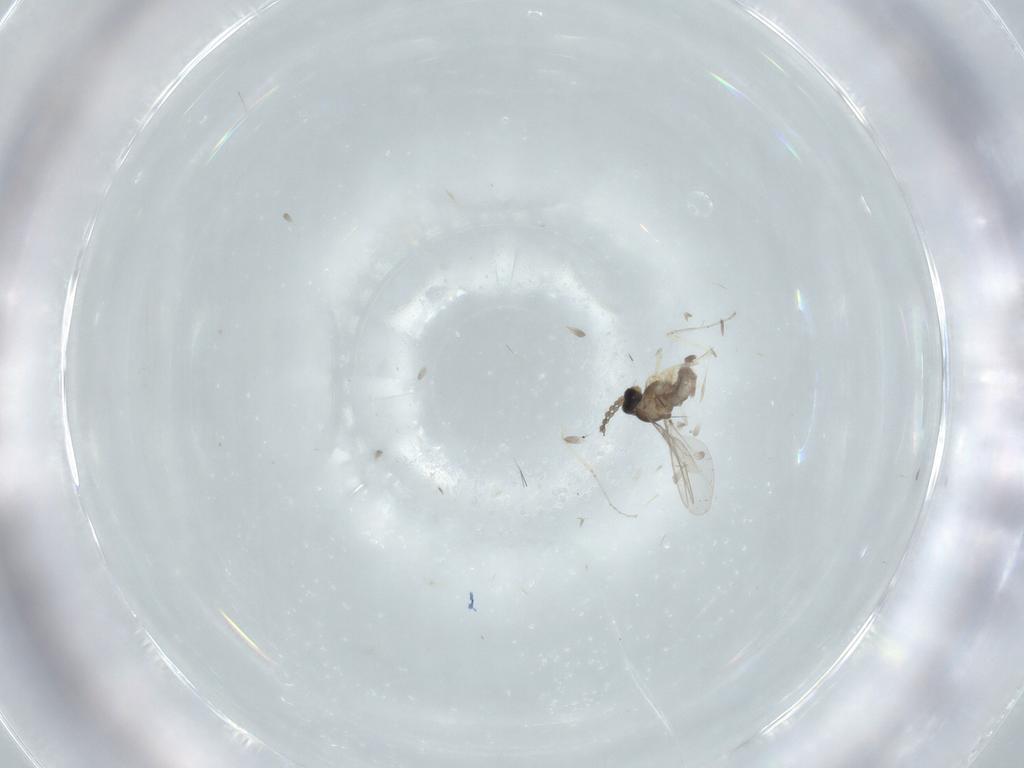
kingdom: Animalia
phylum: Arthropoda
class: Insecta
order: Diptera
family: Cecidomyiidae
